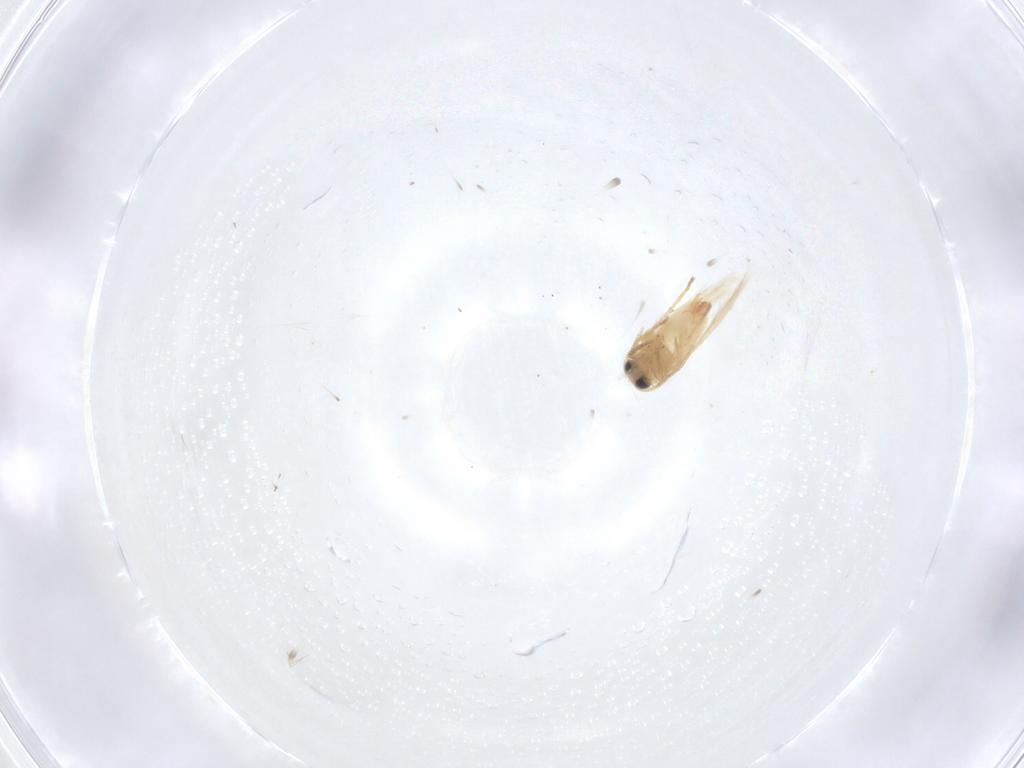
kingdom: Animalia
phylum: Arthropoda
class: Insecta
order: Lepidoptera
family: Crambidae
